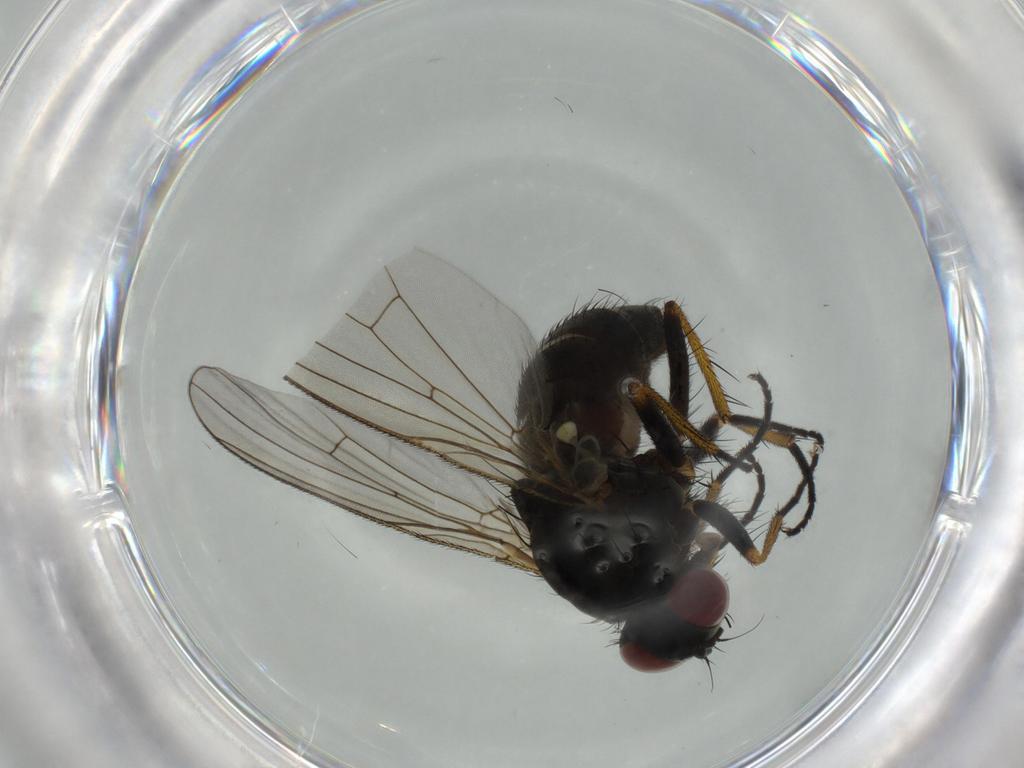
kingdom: Animalia
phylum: Arthropoda
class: Insecta
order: Diptera
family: Muscidae
